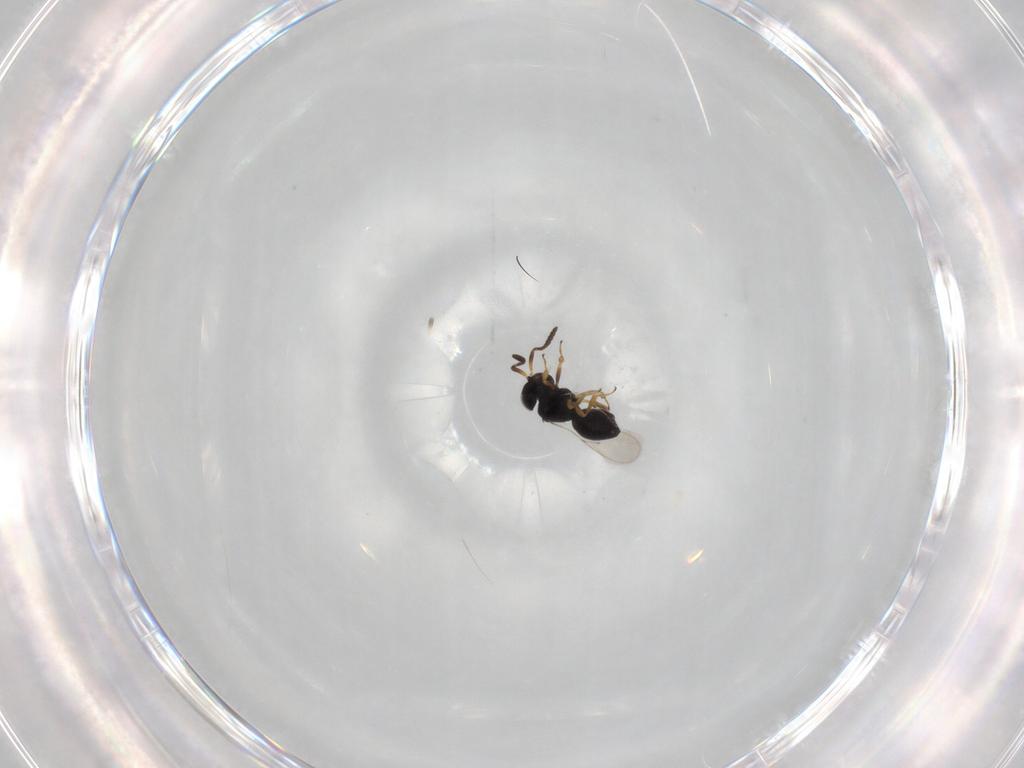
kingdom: Animalia
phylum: Arthropoda
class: Insecta
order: Hymenoptera
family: Scelionidae
